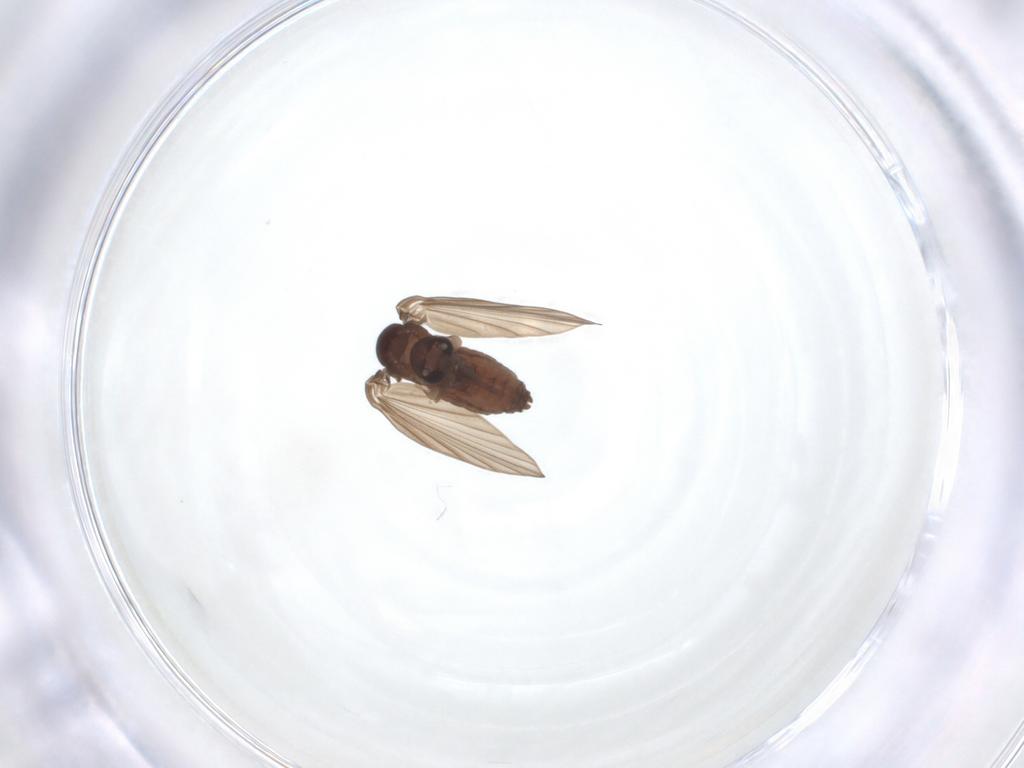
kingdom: Animalia
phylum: Arthropoda
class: Insecta
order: Diptera
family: Psychodidae
